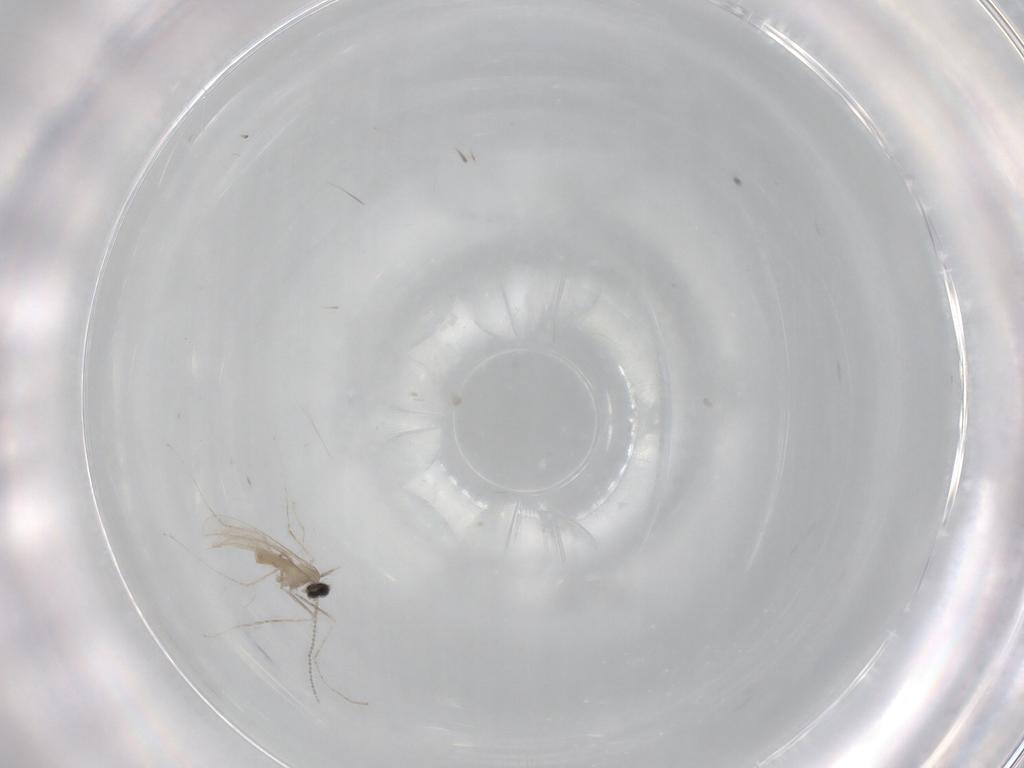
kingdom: Animalia
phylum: Arthropoda
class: Insecta
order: Diptera
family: Cecidomyiidae
